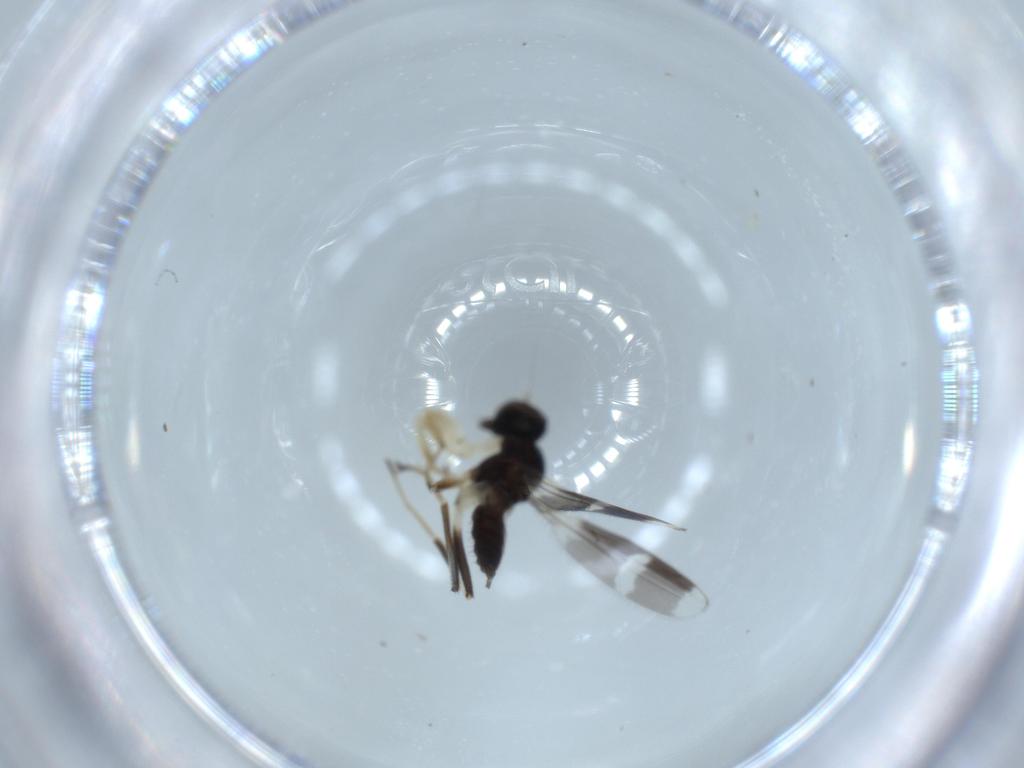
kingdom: Animalia
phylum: Arthropoda
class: Insecta
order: Diptera
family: Hybotidae
